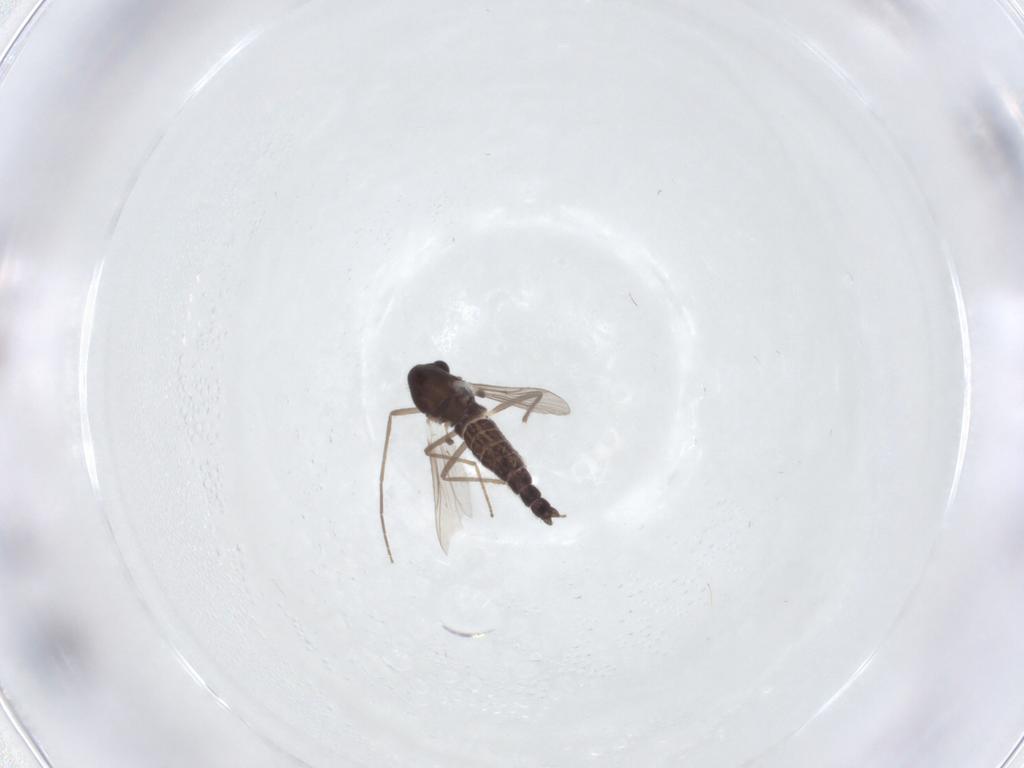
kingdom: Animalia
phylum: Arthropoda
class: Insecta
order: Diptera
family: Chironomidae
